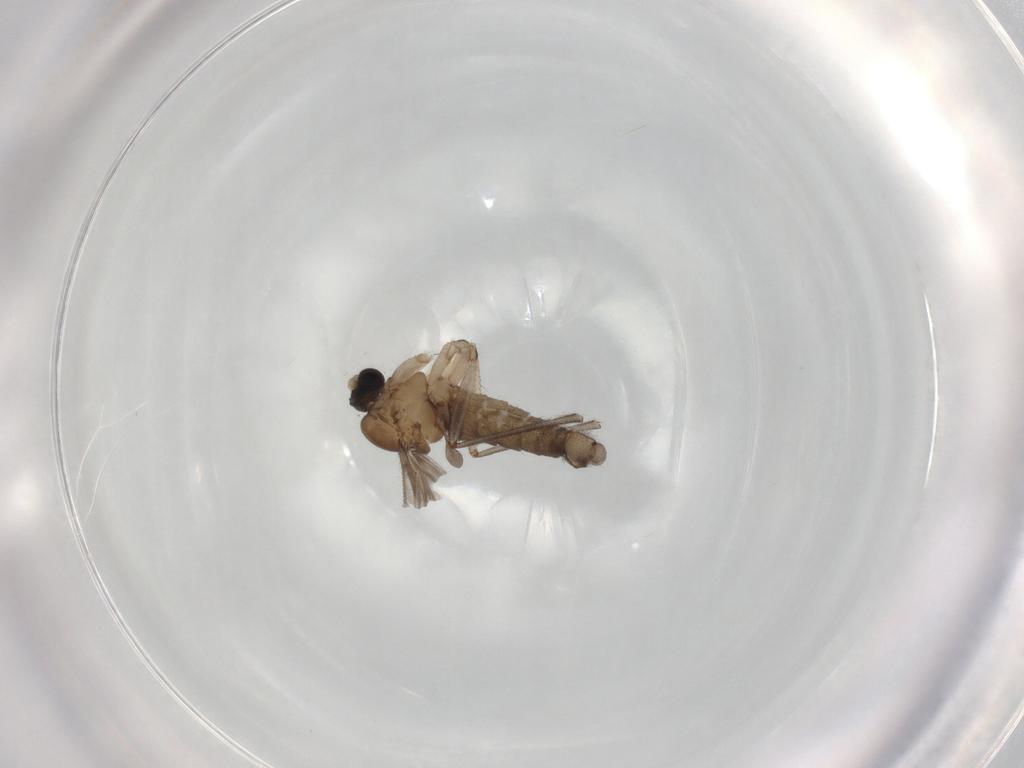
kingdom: Animalia
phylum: Arthropoda
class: Insecta
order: Diptera
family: Sciaridae
